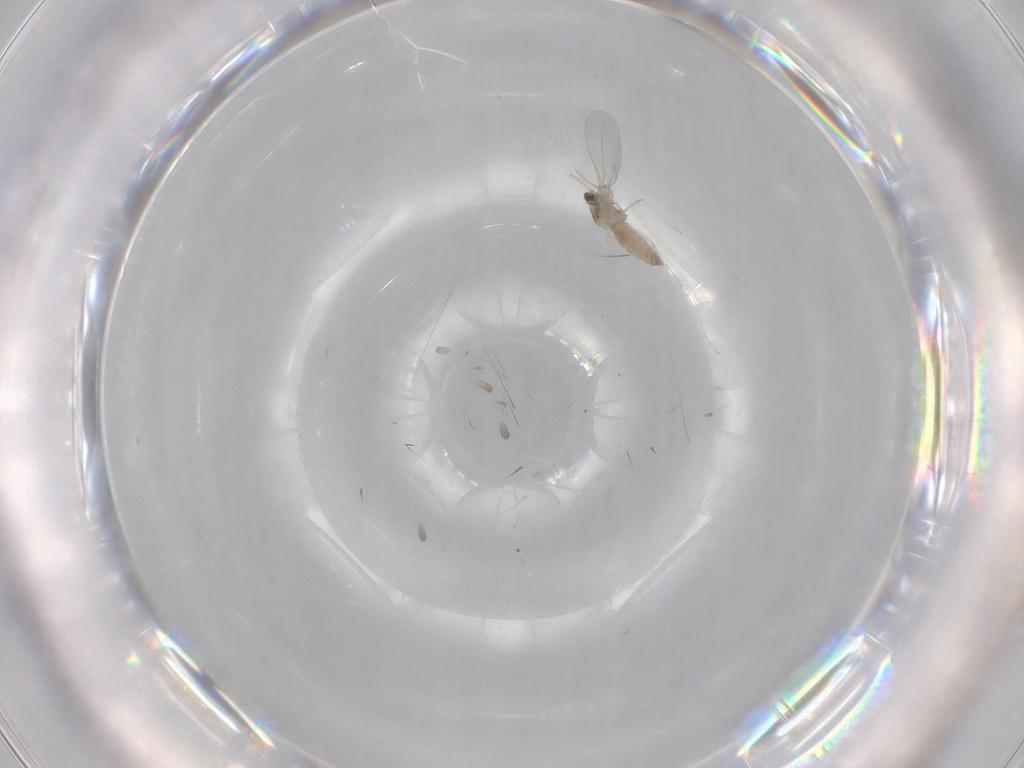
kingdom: Animalia
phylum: Arthropoda
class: Insecta
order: Diptera
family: Cecidomyiidae
